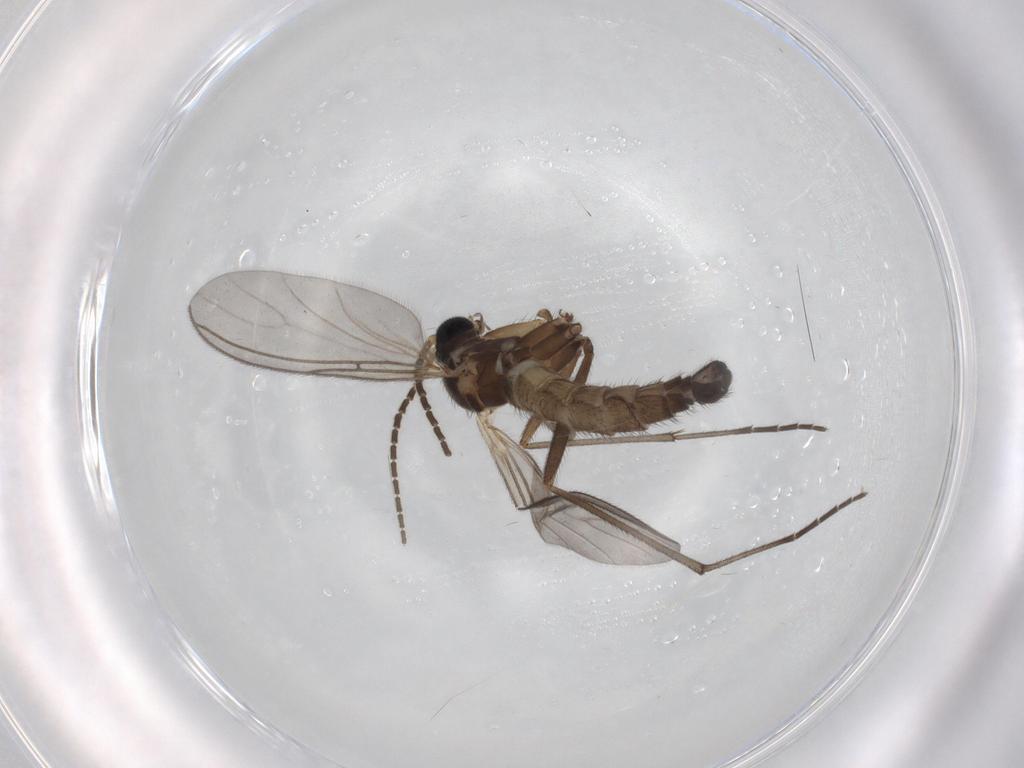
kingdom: Animalia
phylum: Arthropoda
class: Insecta
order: Diptera
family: Sciaridae
